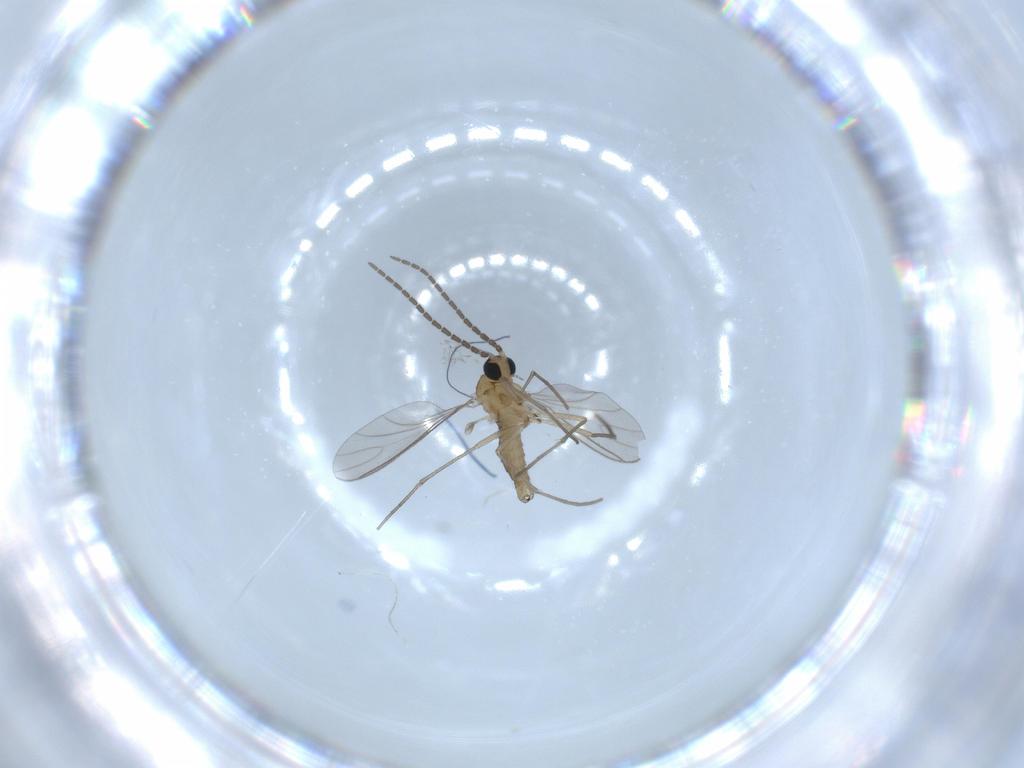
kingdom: Animalia
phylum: Arthropoda
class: Insecta
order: Diptera
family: Sciaridae
